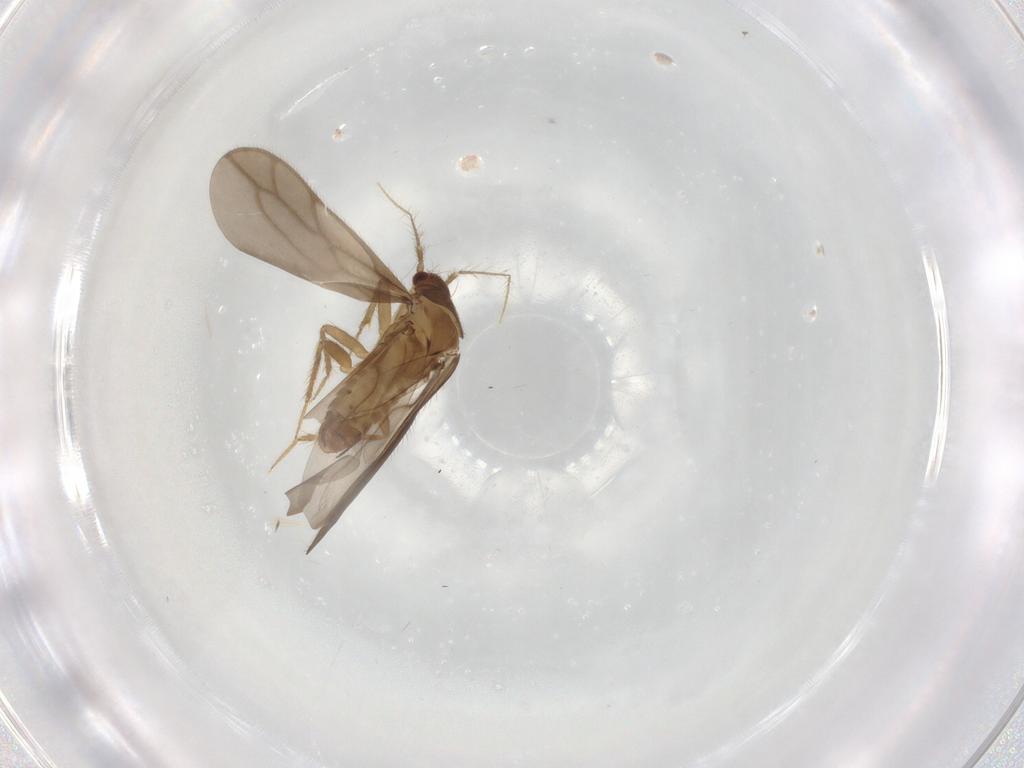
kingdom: Animalia
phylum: Arthropoda
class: Insecta
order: Hemiptera
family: Ceratocombidae
